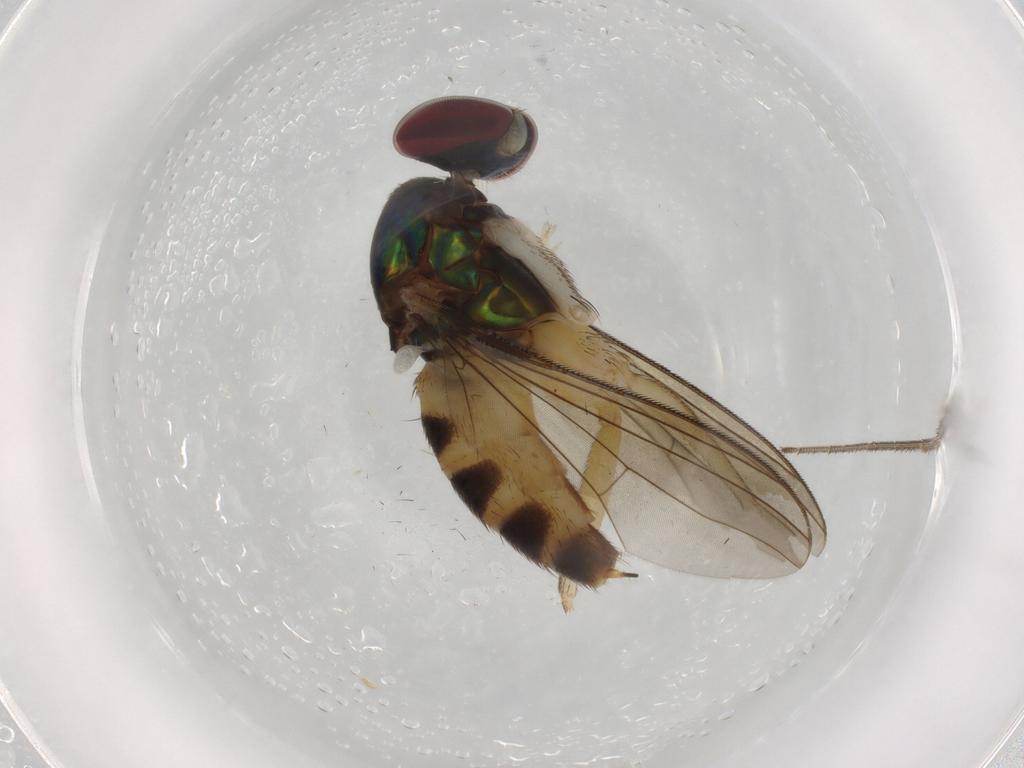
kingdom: Animalia
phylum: Arthropoda
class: Insecta
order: Diptera
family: Dolichopodidae
